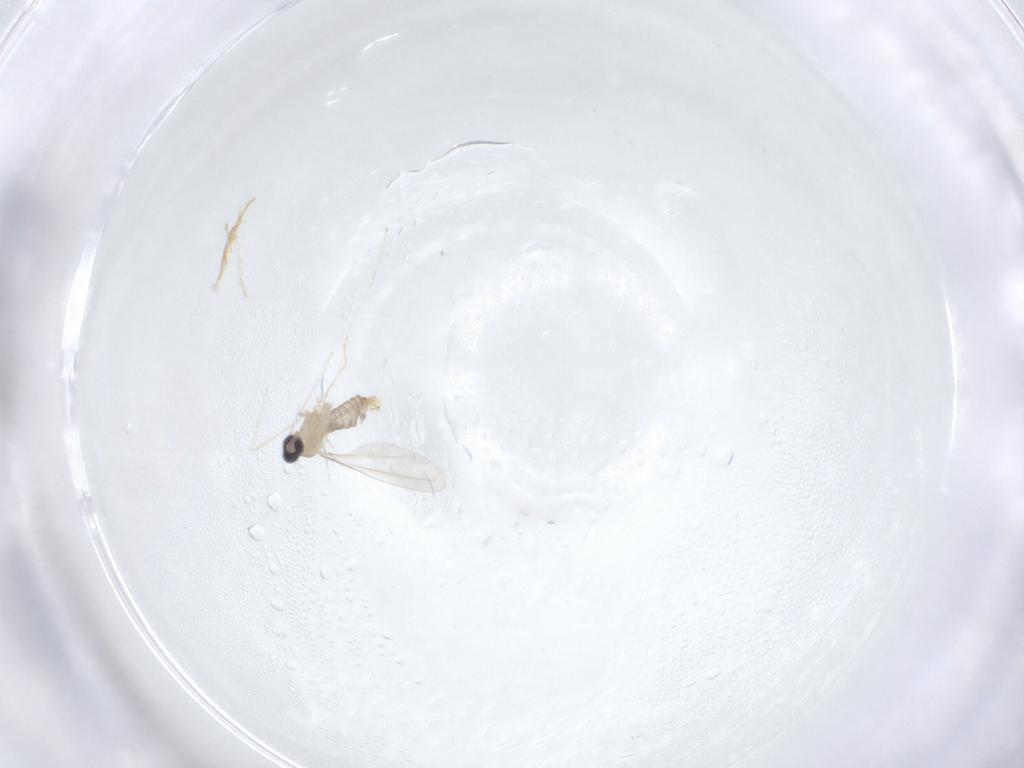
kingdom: Animalia
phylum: Arthropoda
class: Insecta
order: Diptera
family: Cecidomyiidae
